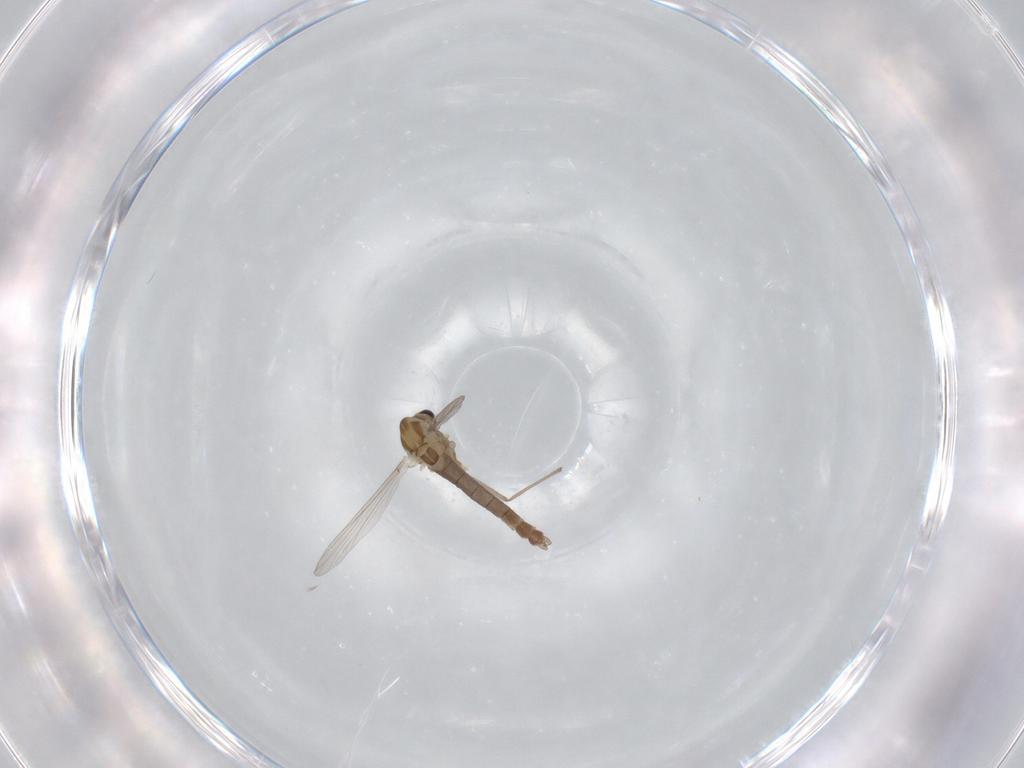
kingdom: Animalia
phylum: Arthropoda
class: Insecta
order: Diptera
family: Chironomidae
